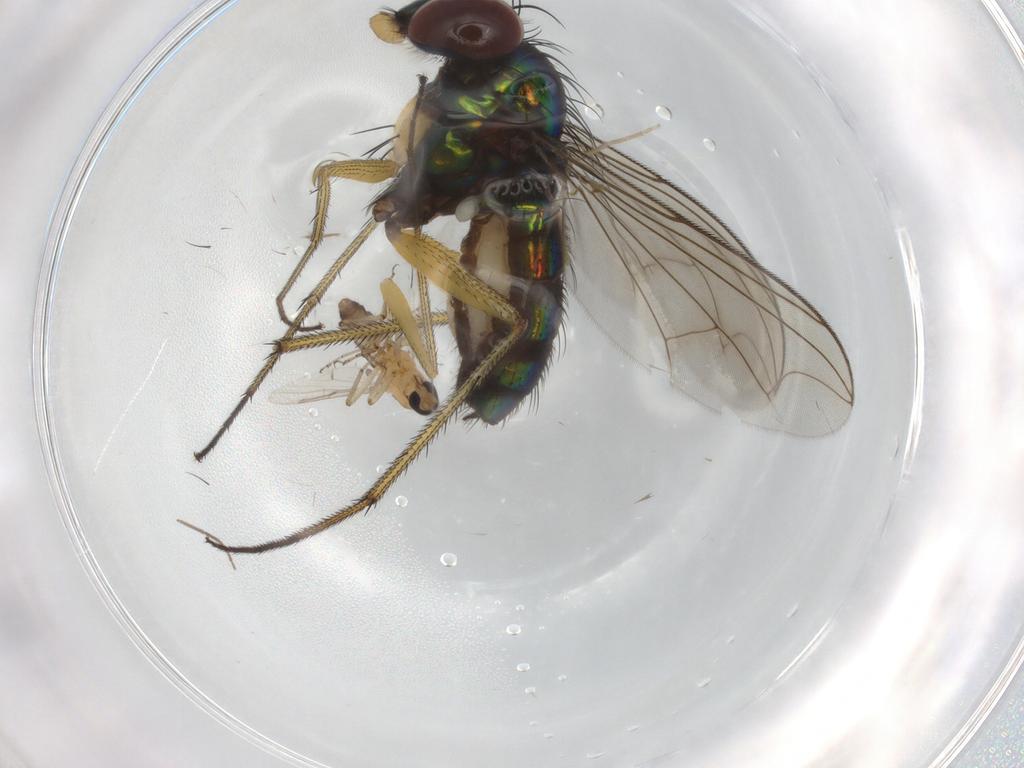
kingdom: Animalia
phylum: Arthropoda
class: Insecta
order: Diptera
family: Dolichopodidae
